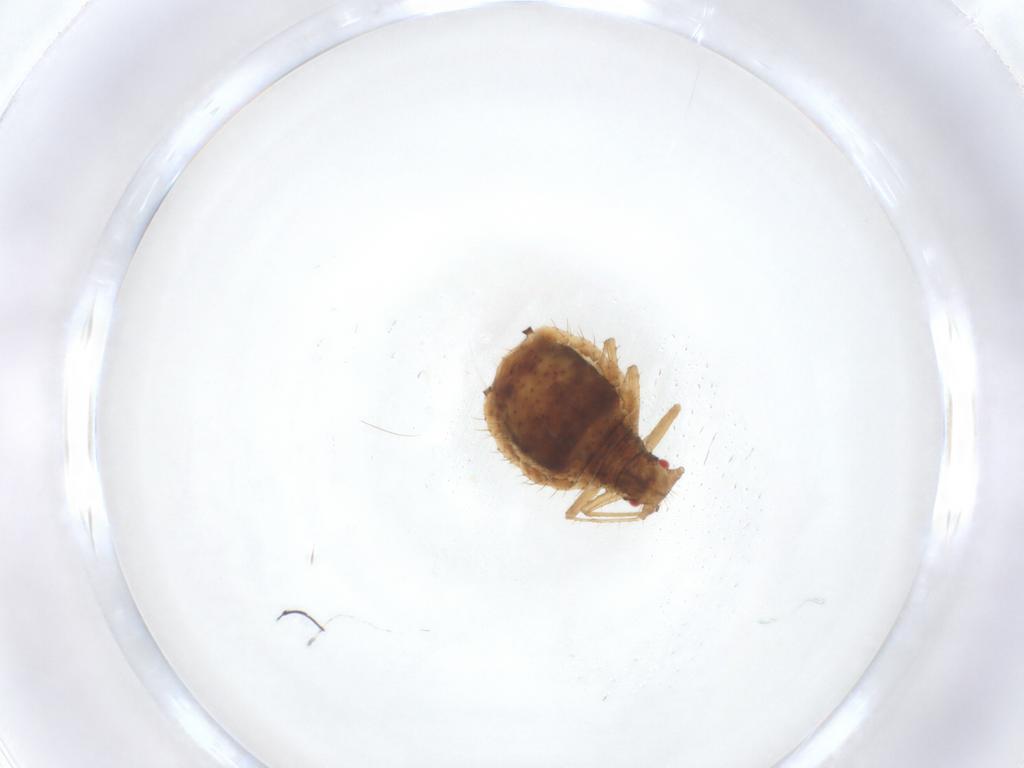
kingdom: Animalia
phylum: Arthropoda
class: Insecta
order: Hemiptera
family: Aphididae
